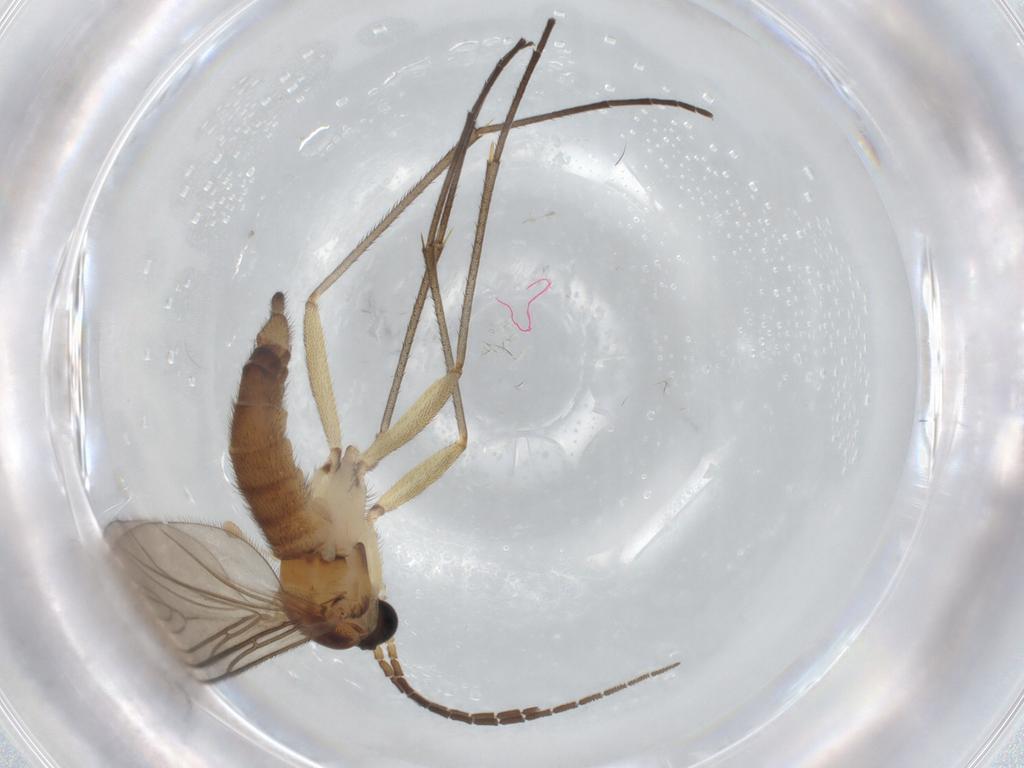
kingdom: Animalia
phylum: Arthropoda
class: Insecta
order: Diptera
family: Sciaridae
